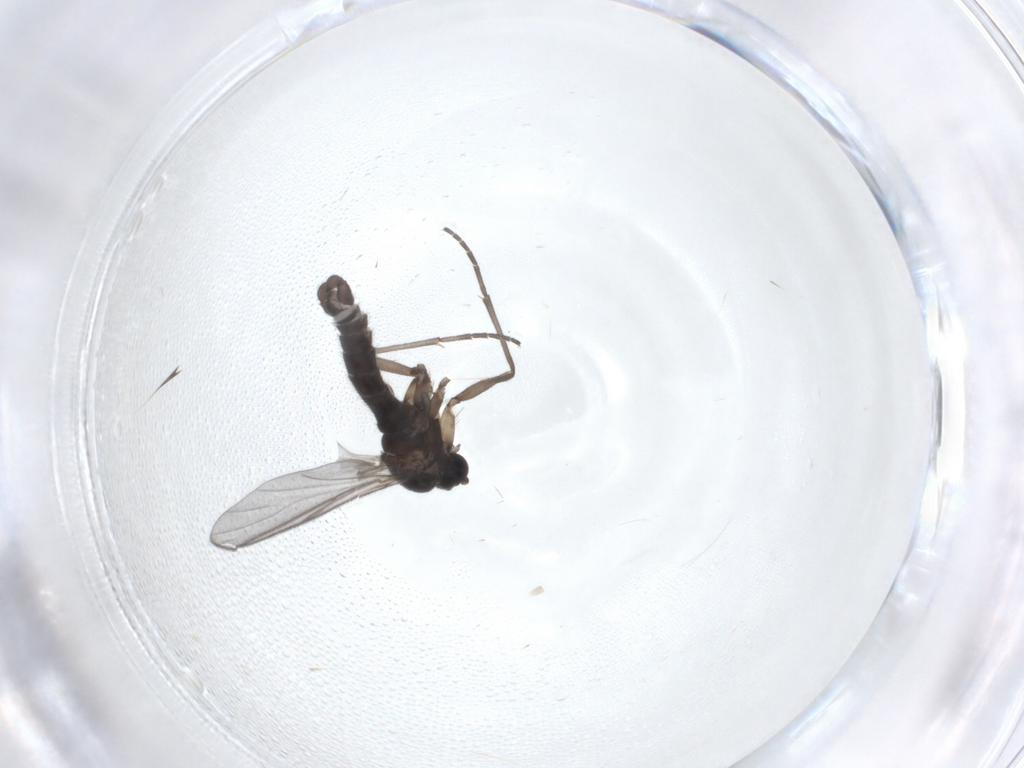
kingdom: Animalia
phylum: Arthropoda
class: Insecta
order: Diptera
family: Sciaridae
